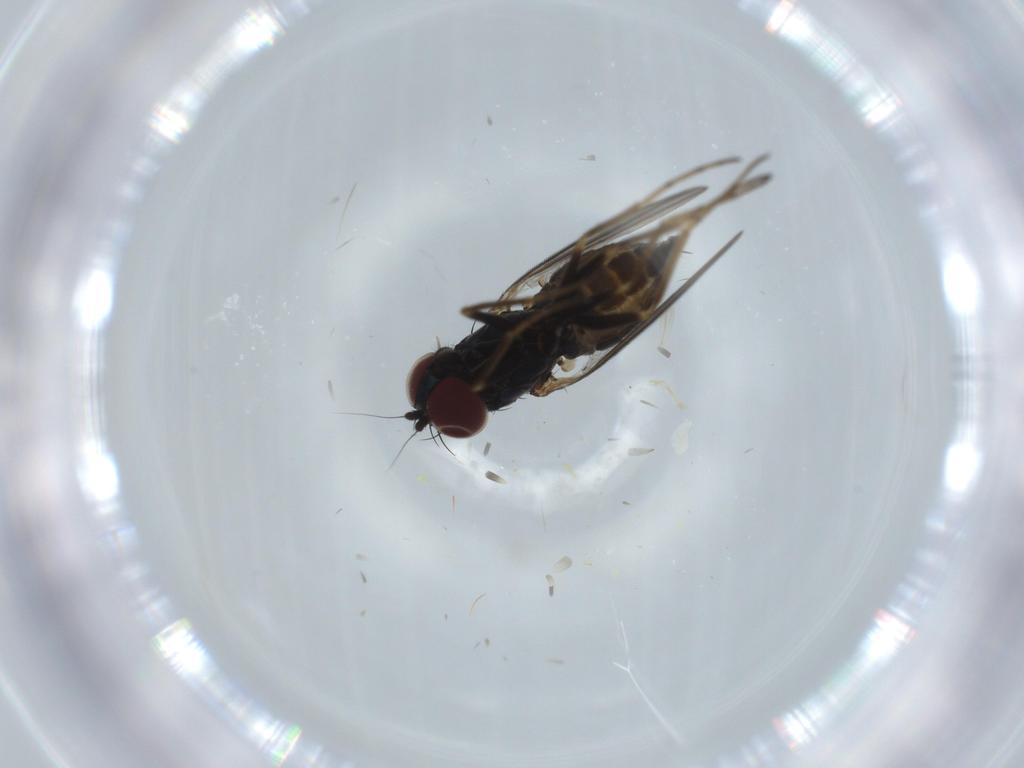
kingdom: Animalia
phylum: Arthropoda
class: Insecta
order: Diptera
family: Dolichopodidae
